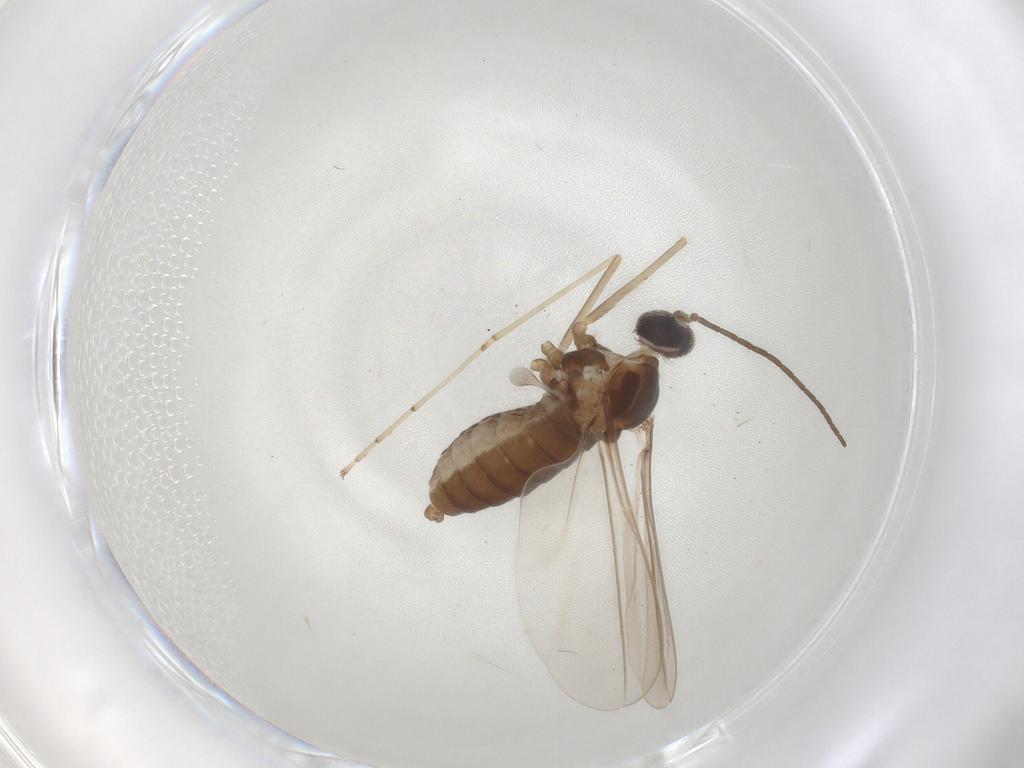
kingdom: Animalia
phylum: Arthropoda
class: Insecta
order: Diptera
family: Cecidomyiidae
